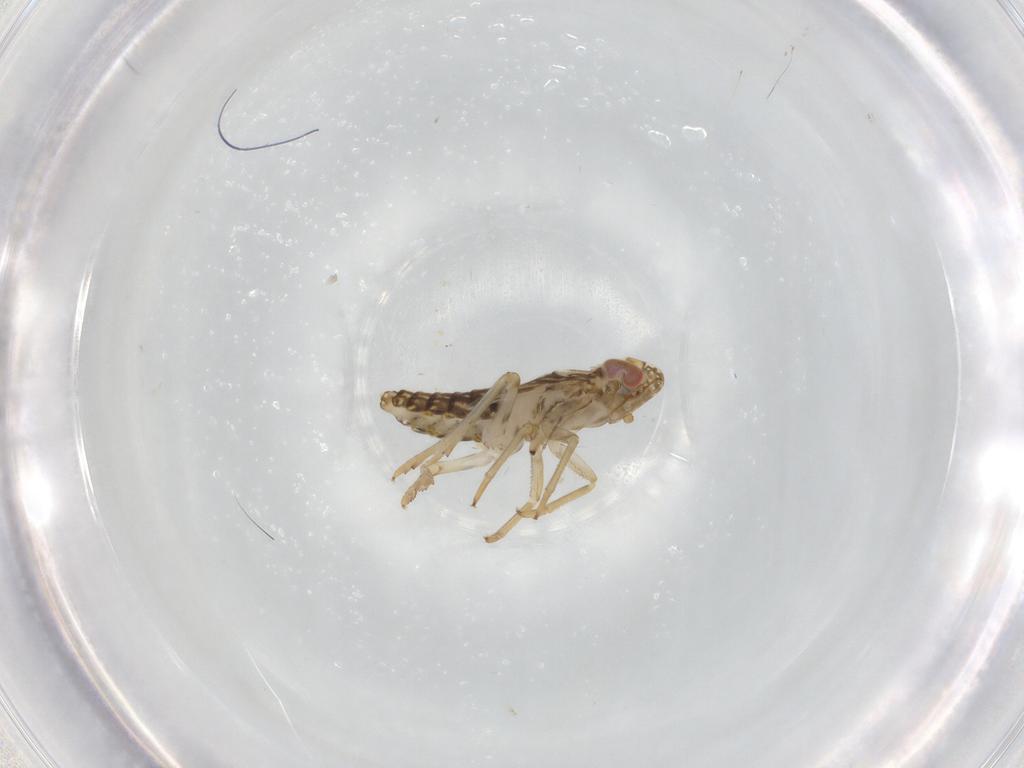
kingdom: Animalia
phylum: Arthropoda
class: Insecta
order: Hemiptera
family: Delphacidae
